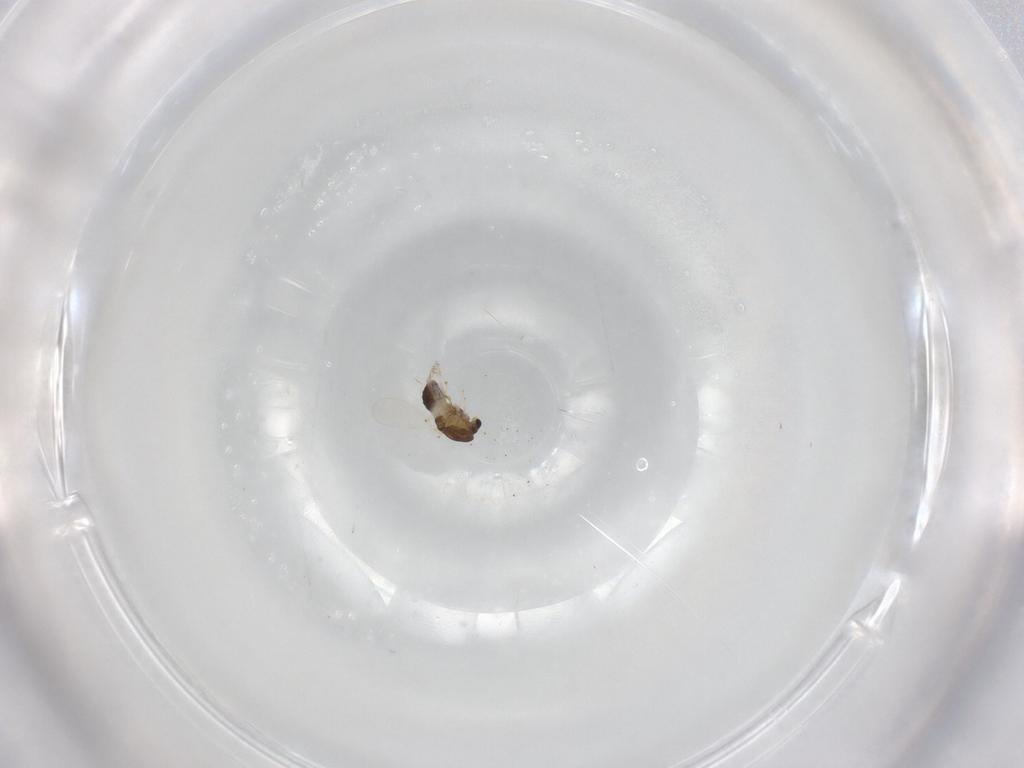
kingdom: Animalia
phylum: Arthropoda
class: Insecta
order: Diptera
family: Chironomidae
